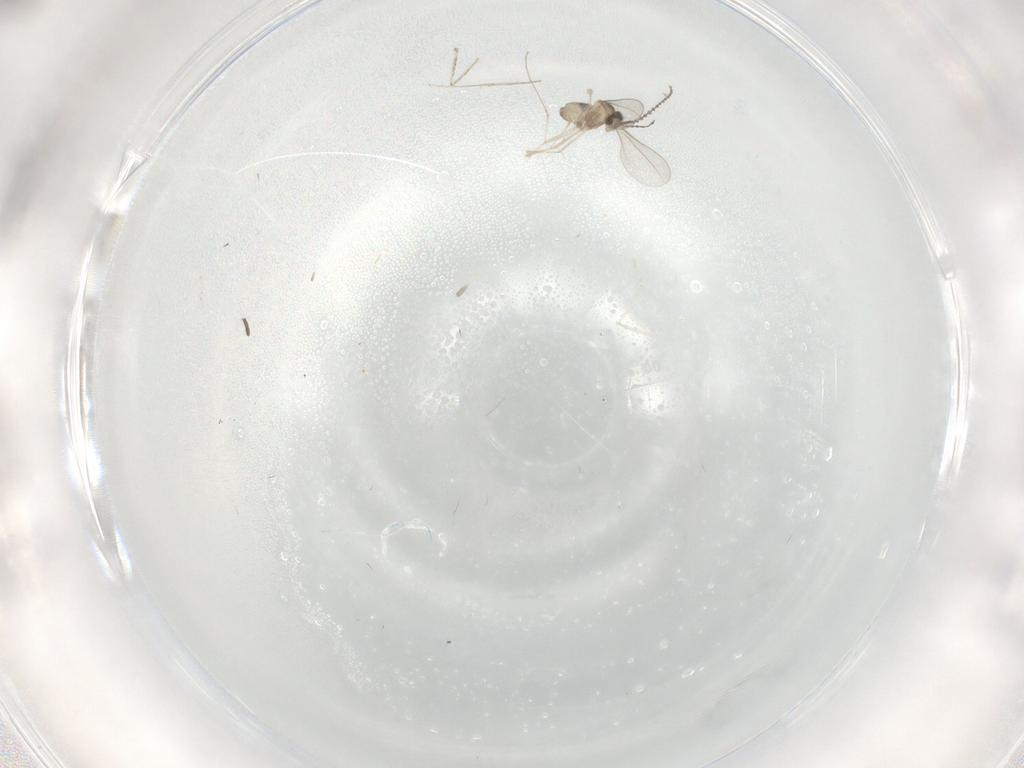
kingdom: Animalia
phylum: Arthropoda
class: Insecta
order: Diptera
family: Cecidomyiidae
